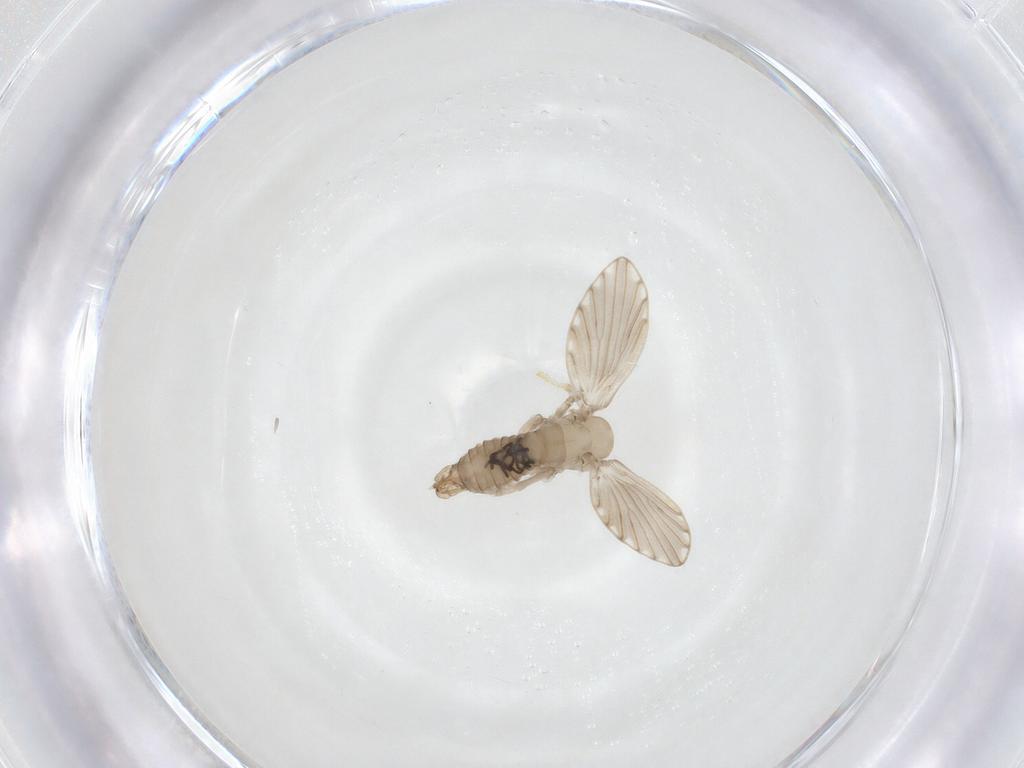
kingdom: Animalia
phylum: Arthropoda
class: Insecta
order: Diptera
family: Psychodidae
